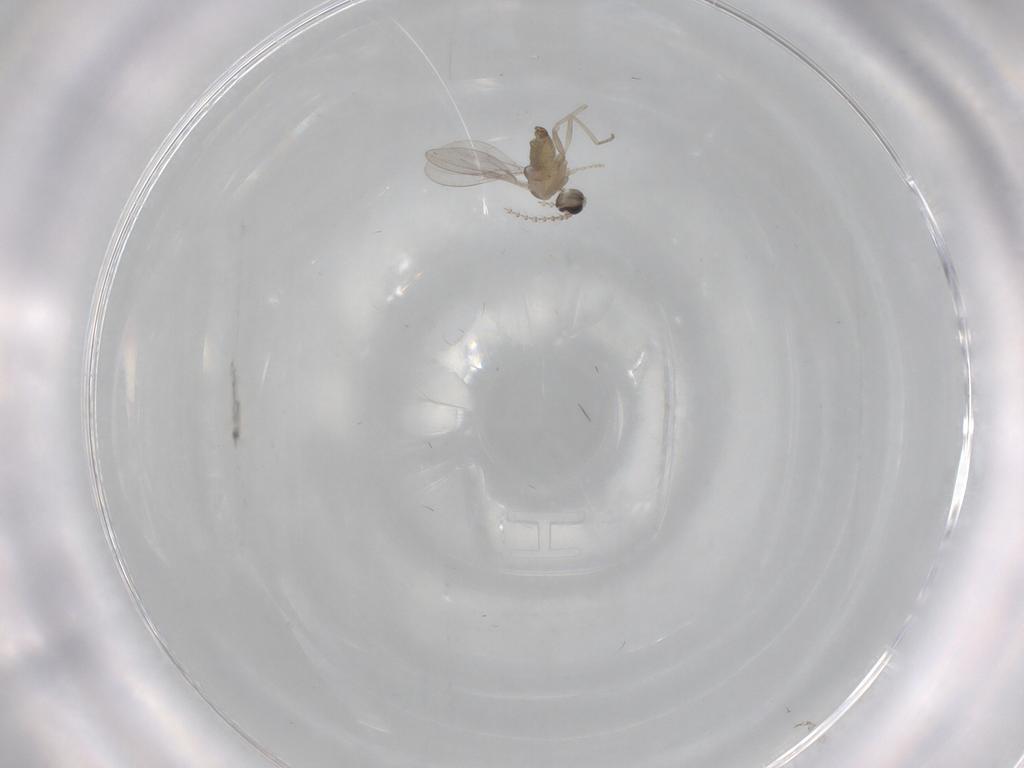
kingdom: Animalia
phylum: Arthropoda
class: Insecta
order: Diptera
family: Cecidomyiidae
